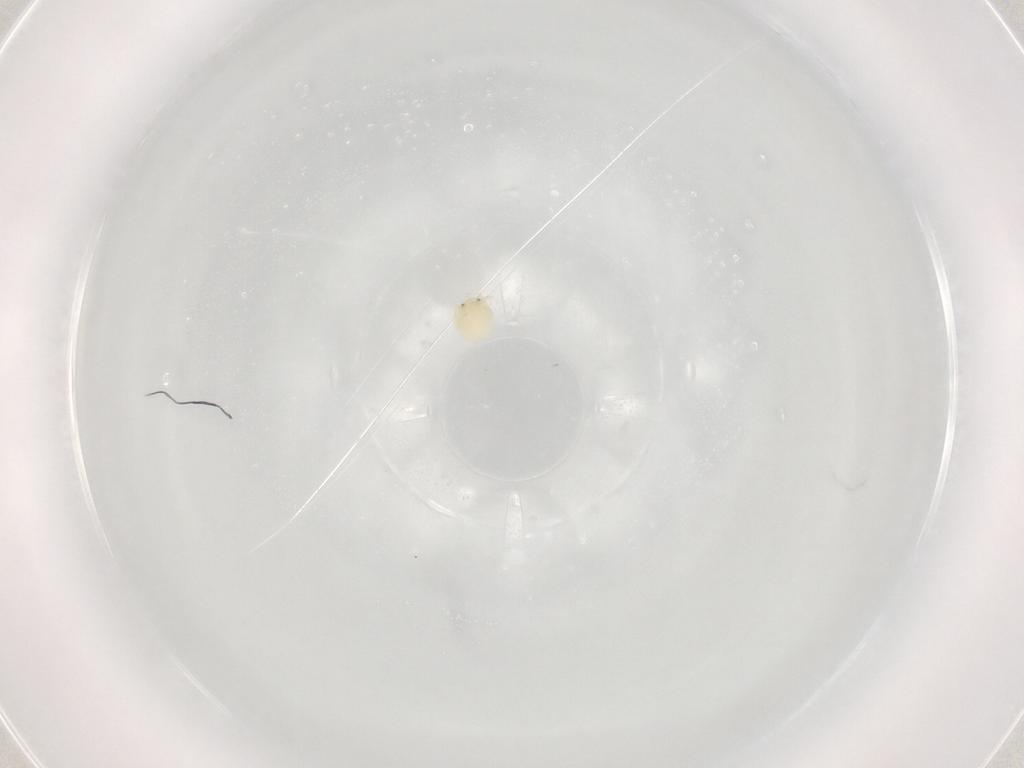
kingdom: Animalia
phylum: Arthropoda
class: Arachnida
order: Trombidiformes
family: Arrenuridae
